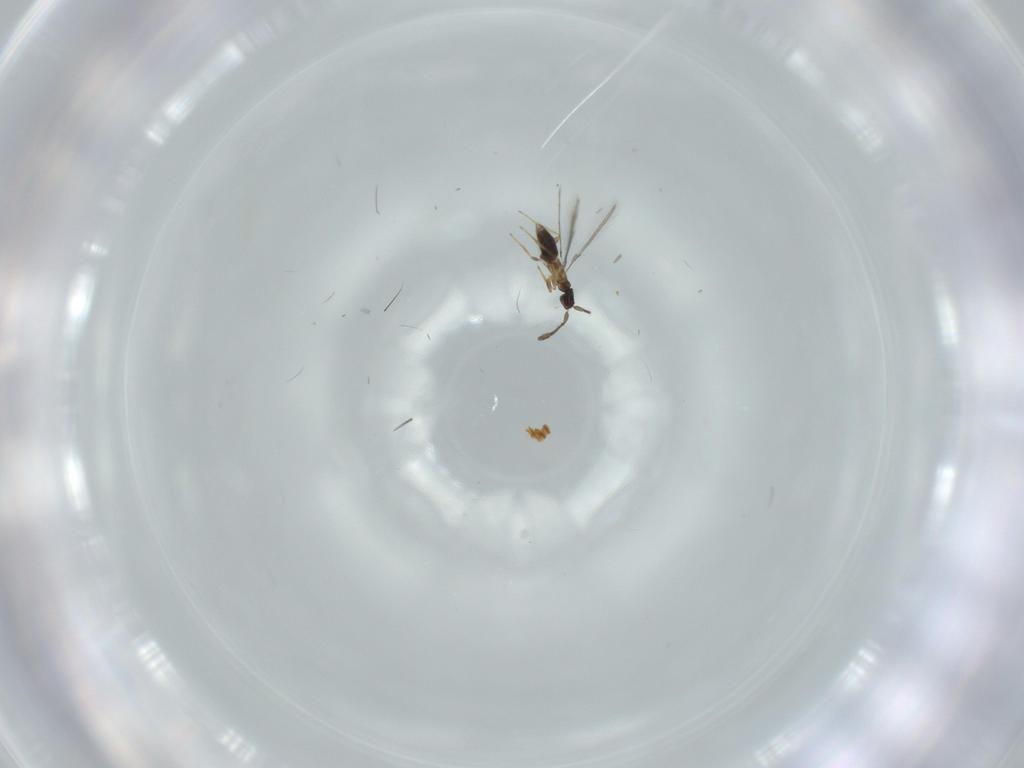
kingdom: Animalia
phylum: Arthropoda
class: Insecta
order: Hymenoptera
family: Mymaridae
